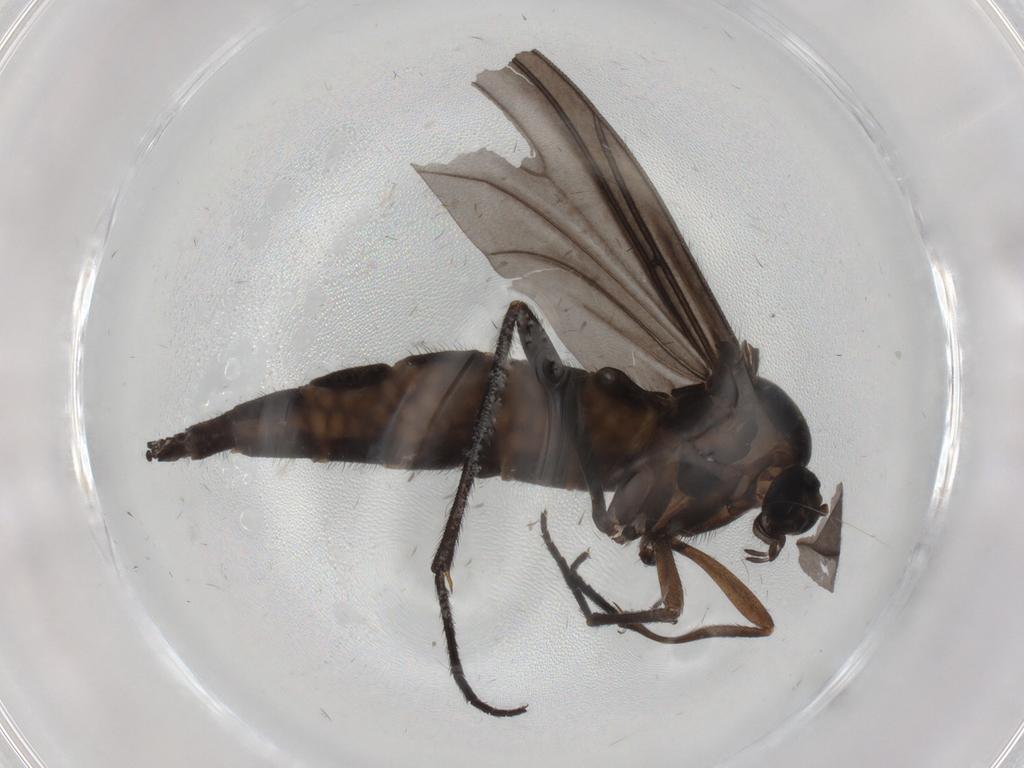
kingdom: Animalia
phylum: Arthropoda
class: Insecta
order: Diptera
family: Sciaridae
